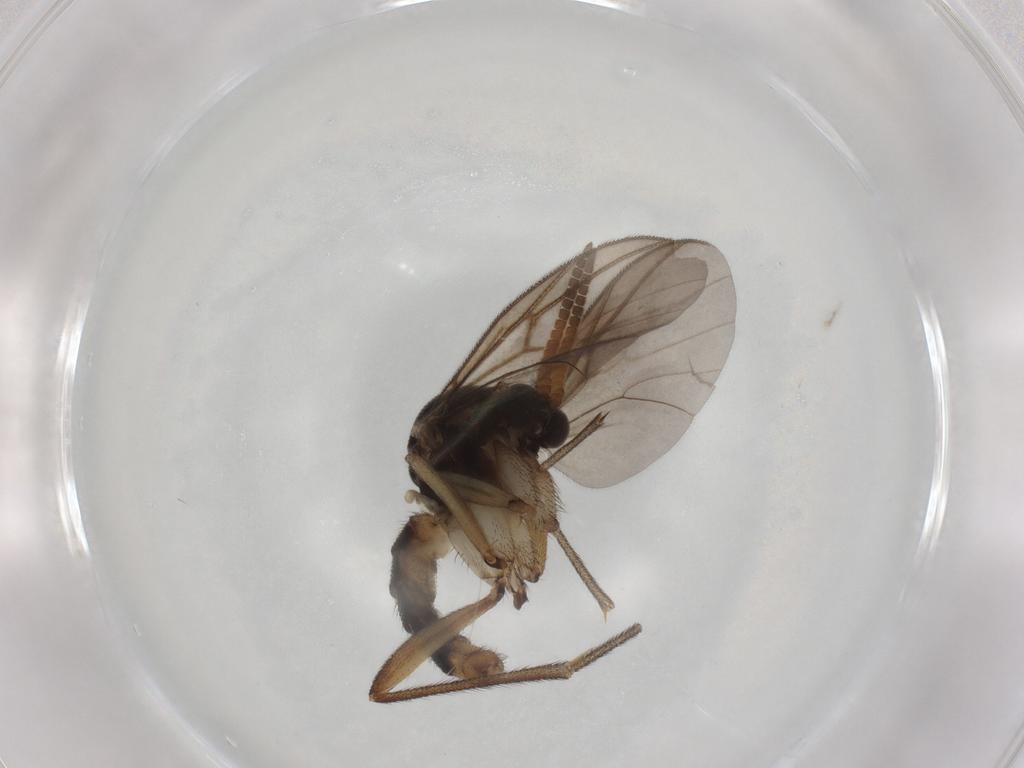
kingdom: Animalia
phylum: Arthropoda
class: Insecta
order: Diptera
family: Mycetophilidae
